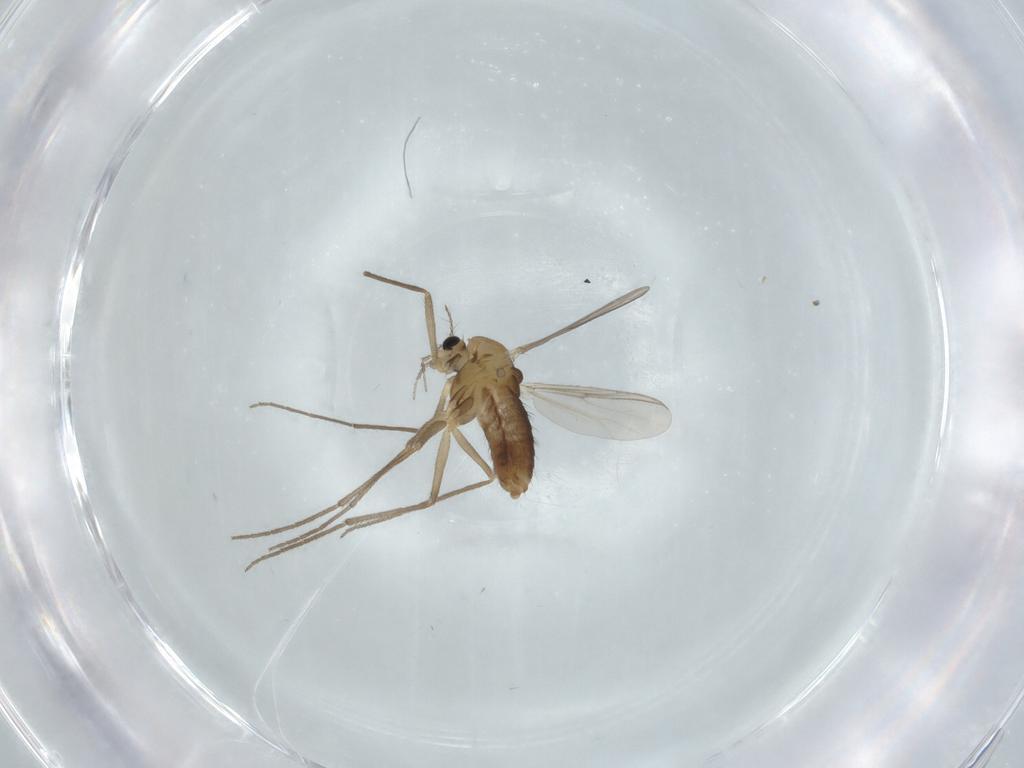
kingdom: Animalia
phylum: Arthropoda
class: Insecta
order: Diptera
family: Chironomidae
